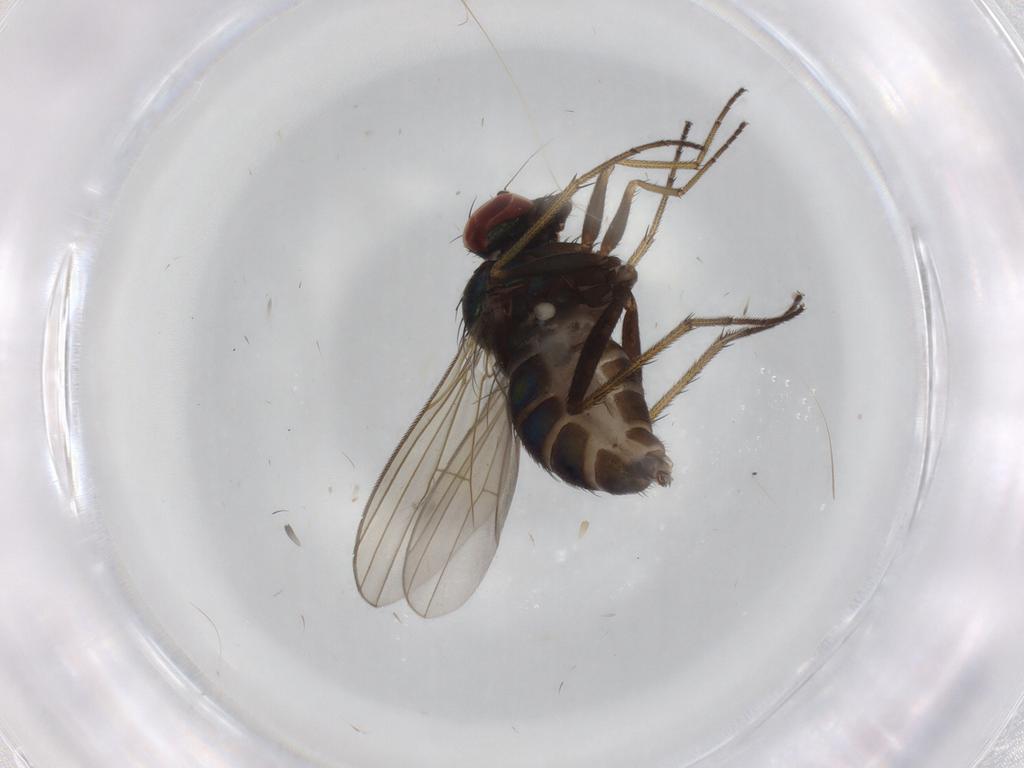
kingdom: Animalia
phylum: Arthropoda
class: Insecta
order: Diptera
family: Dolichopodidae
